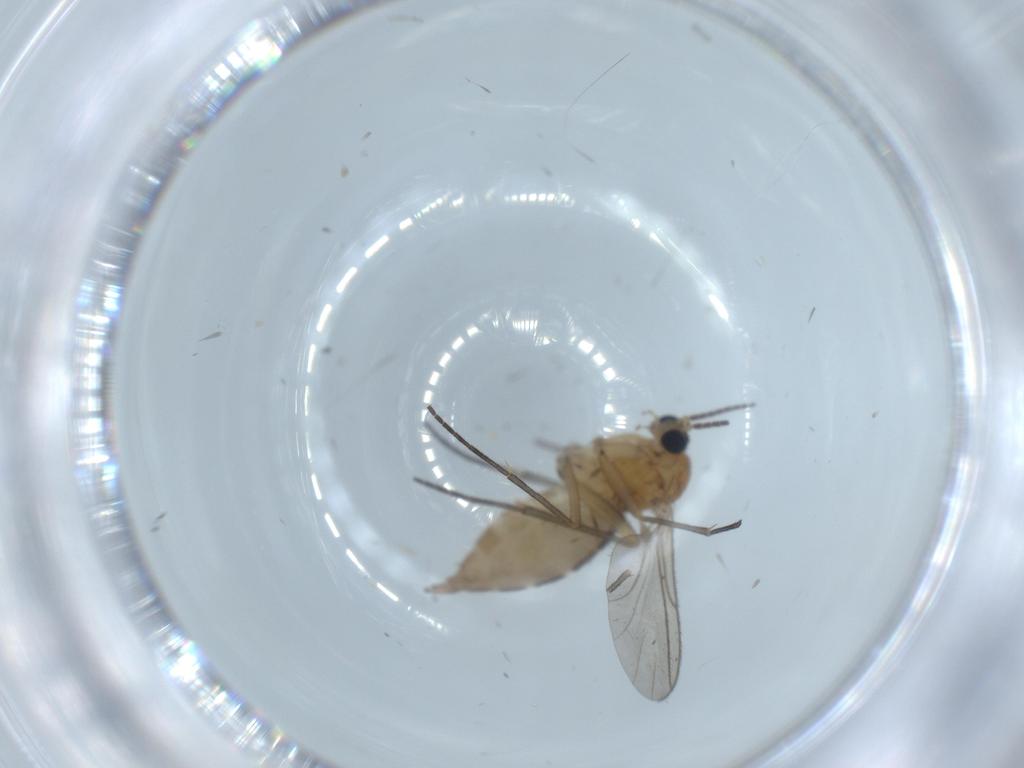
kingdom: Animalia
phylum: Arthropoda
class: Insecta
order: Diptera
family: Sciaridae
